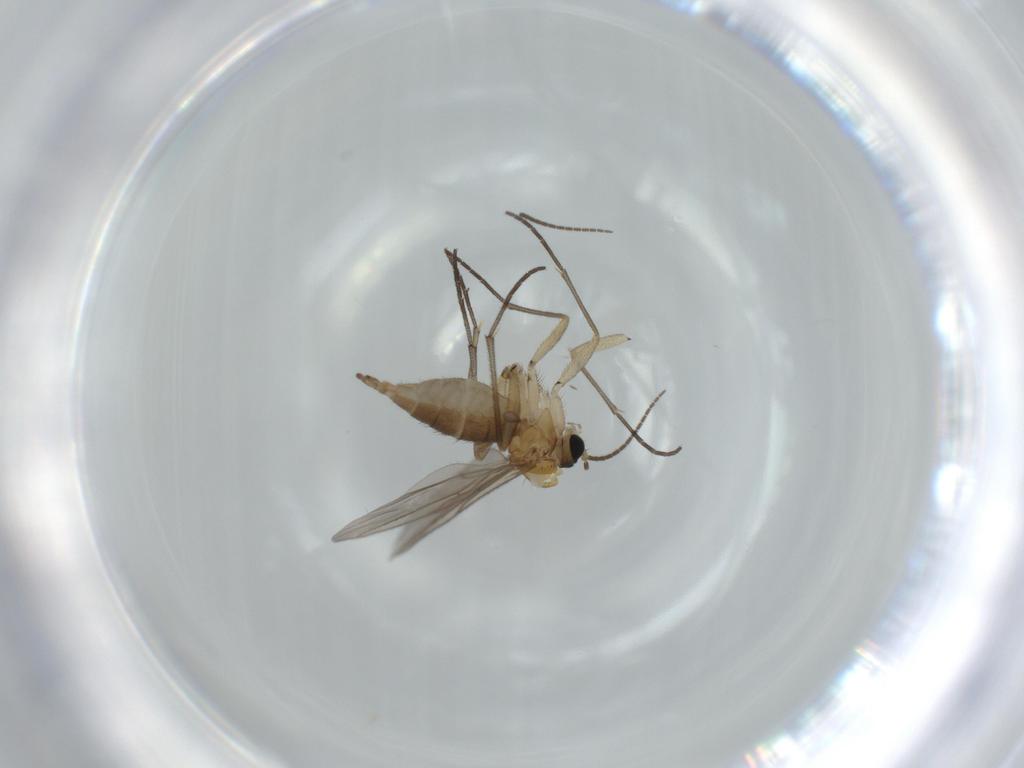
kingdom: Animalia
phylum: Arthropoda
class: Insecta
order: Diptera
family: Sciaridae
